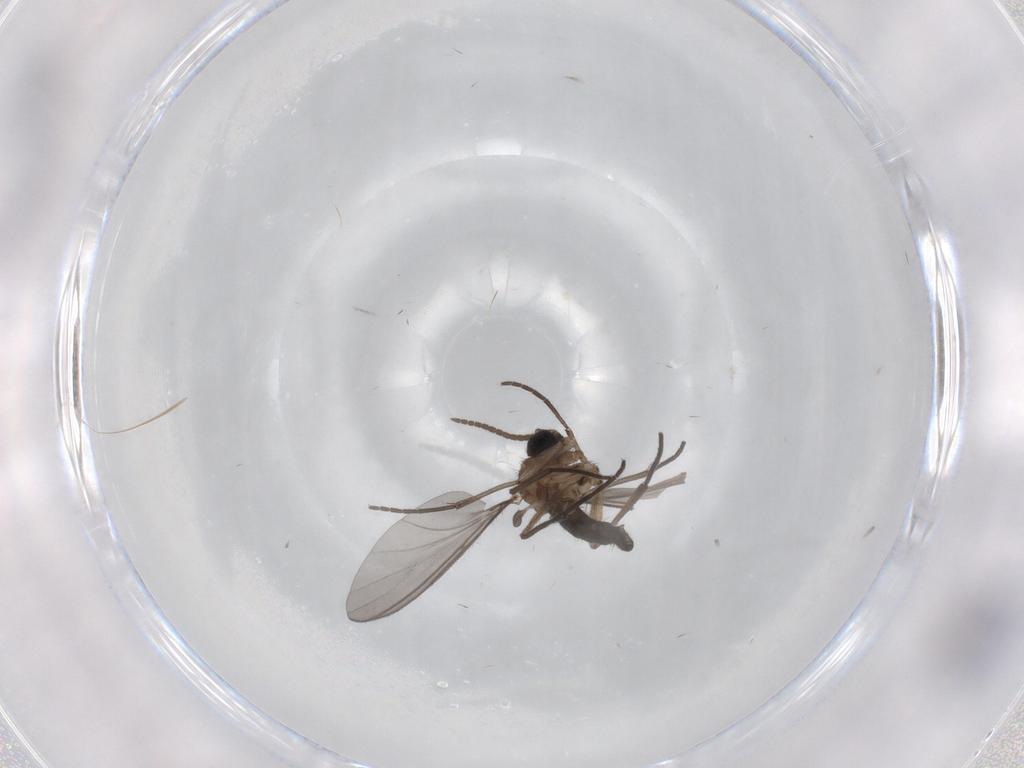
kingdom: Animalia
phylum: Arthropoda
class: Insecta
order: Diptera
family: Sciaridae
